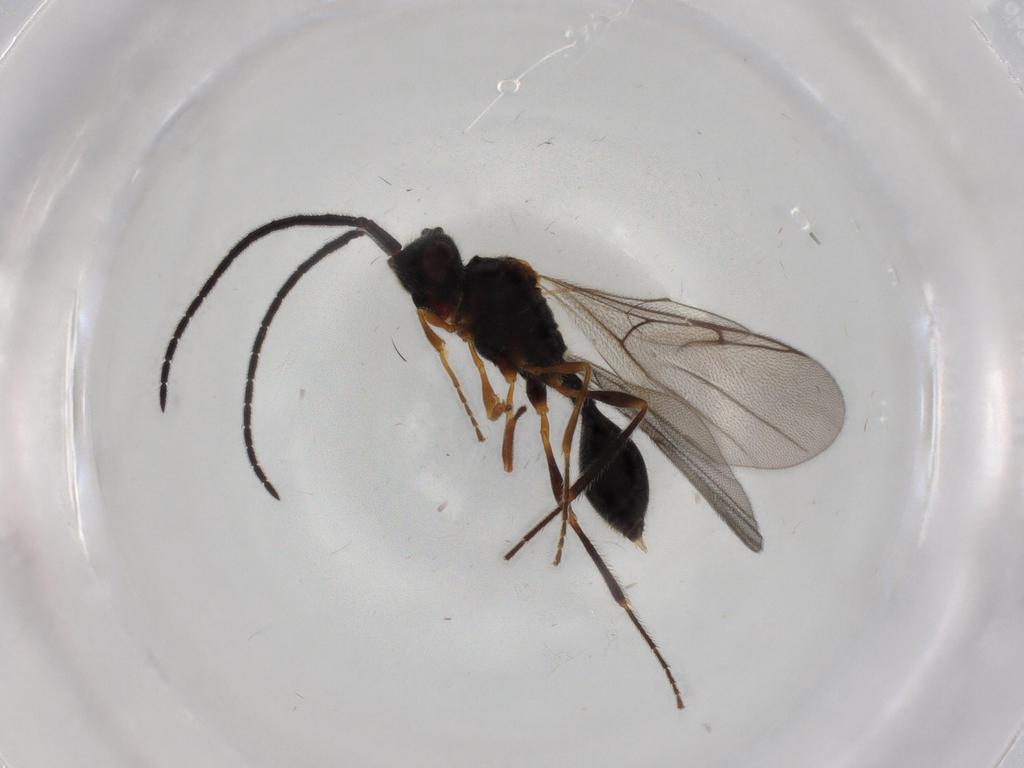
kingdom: Animalia
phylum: Arthropoda
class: Insecta
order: Hymenoptera
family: Diapriidae
